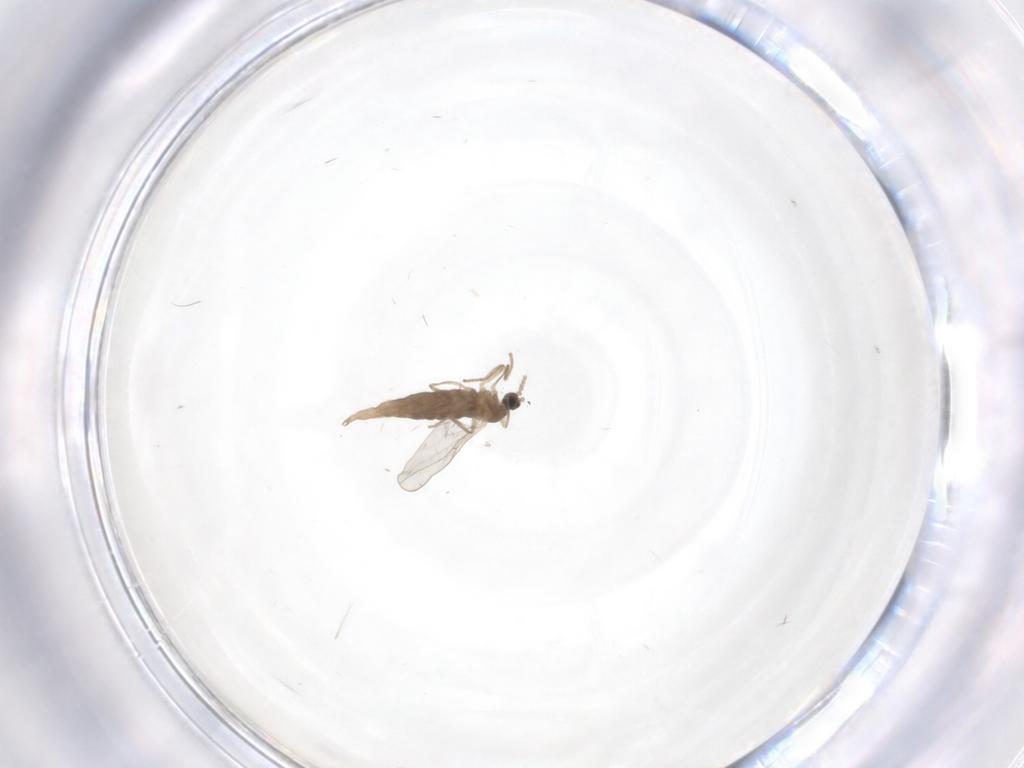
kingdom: Animalia
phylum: Arthropoda
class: Insecta
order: Diptera
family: Cecidomyiidae
